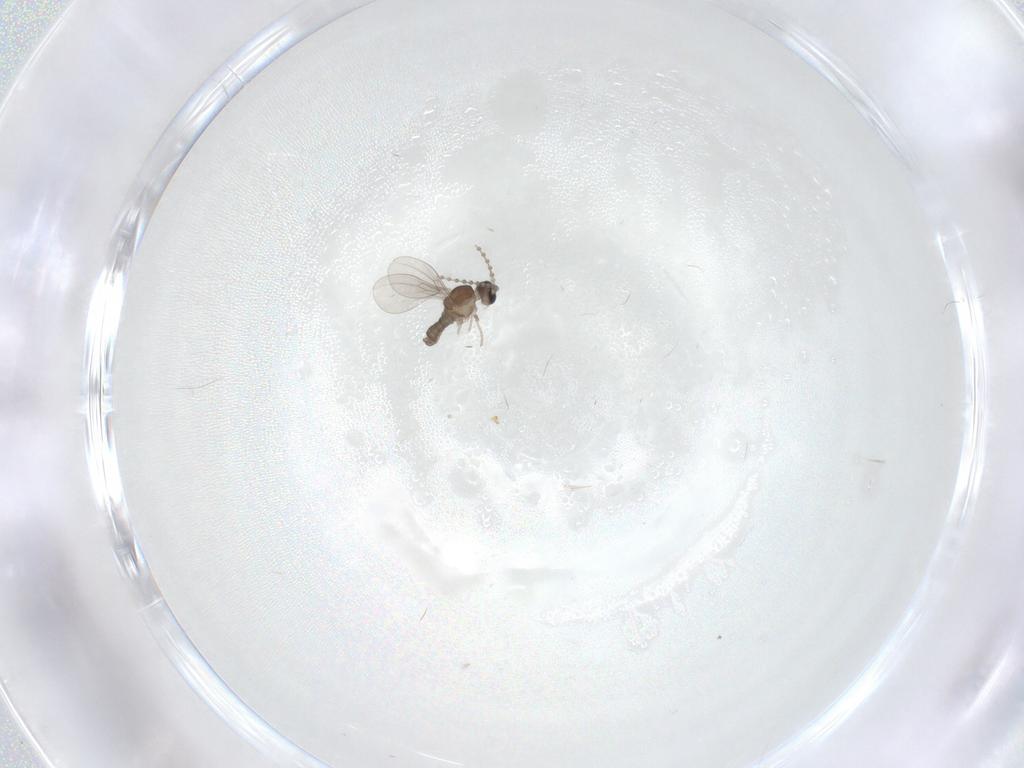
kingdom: Animalia
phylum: Arthropoda
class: Insecta
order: Diptera
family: Cecidomyiidae
